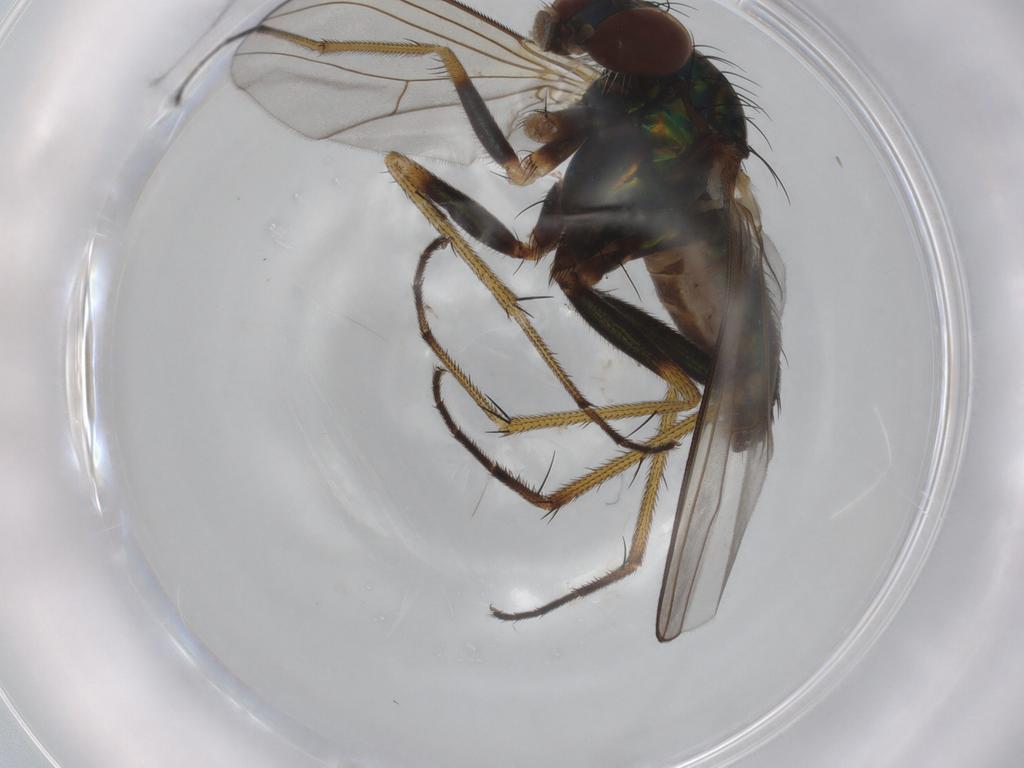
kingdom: Animalia
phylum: Arthropoda
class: Insecta
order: Diptera
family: Dolichopodidae
